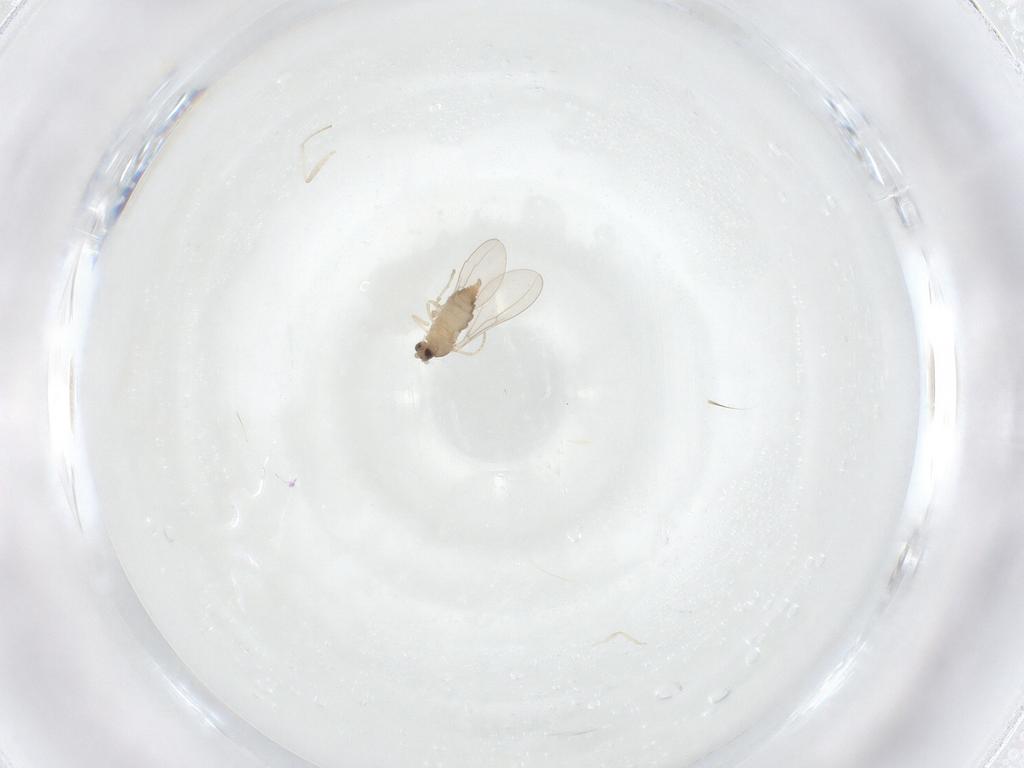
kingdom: Animalia
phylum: Arthropoda
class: Insecta
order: Diptera
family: Cecidomyiidae
